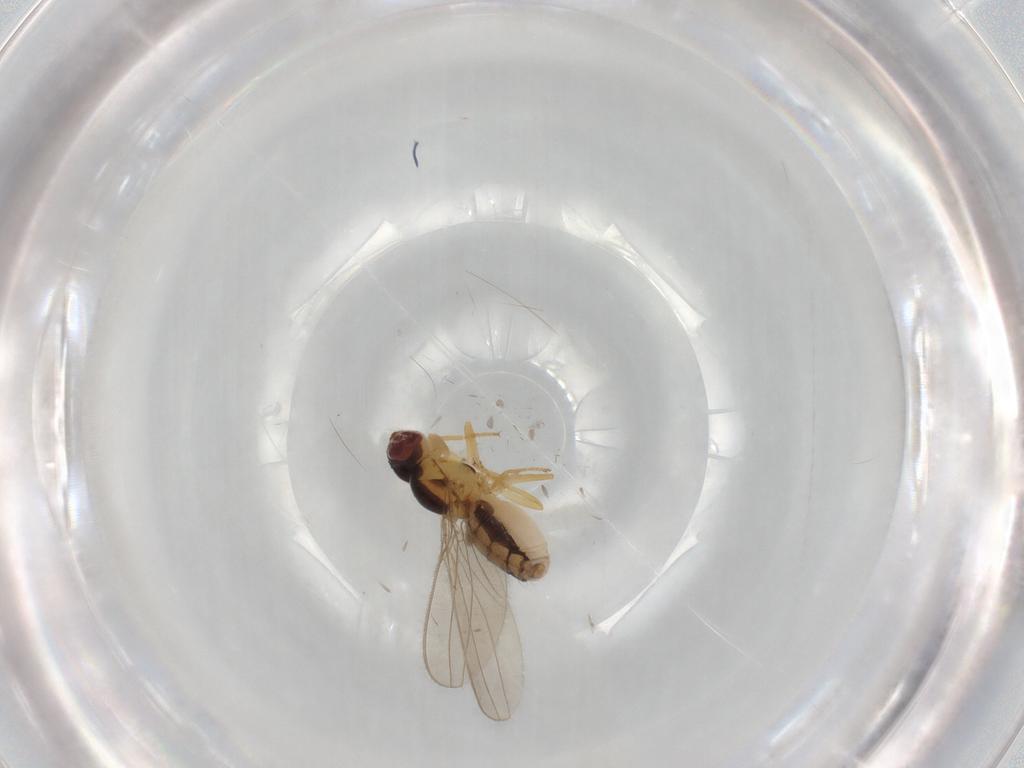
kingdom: Animalia
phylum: Arthropoda
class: Insecta
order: Diptera
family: Asteiidae
